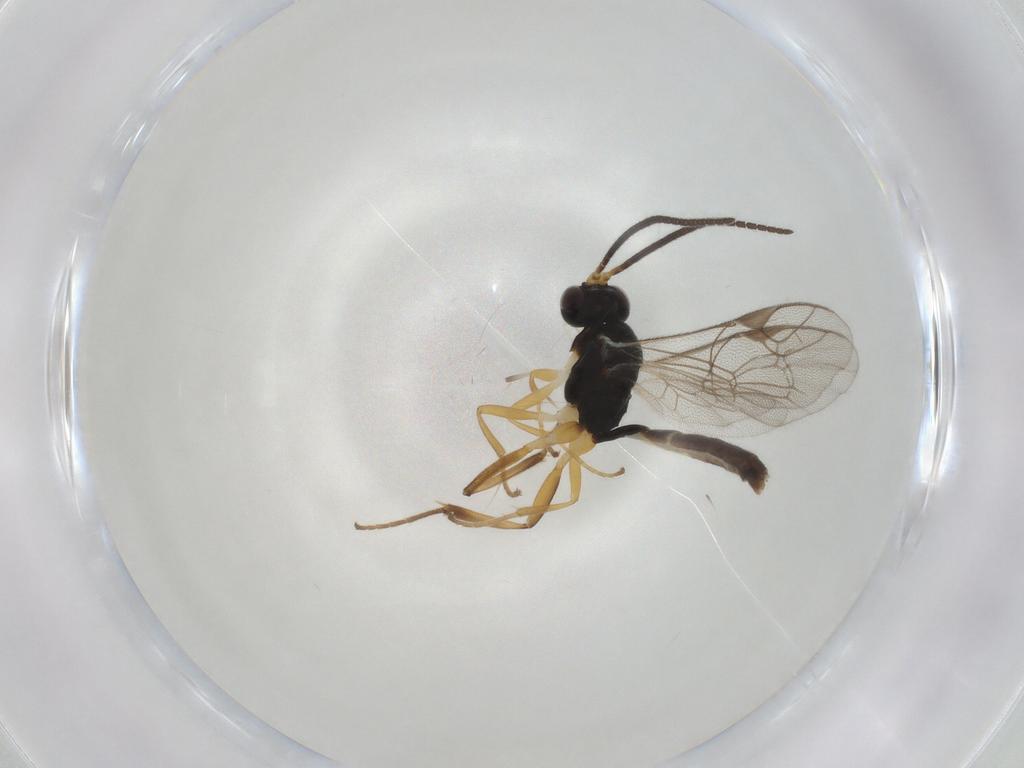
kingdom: Animalia
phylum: Arthropoda
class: Insecta
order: Hymenoptera
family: Ichneumonidae
